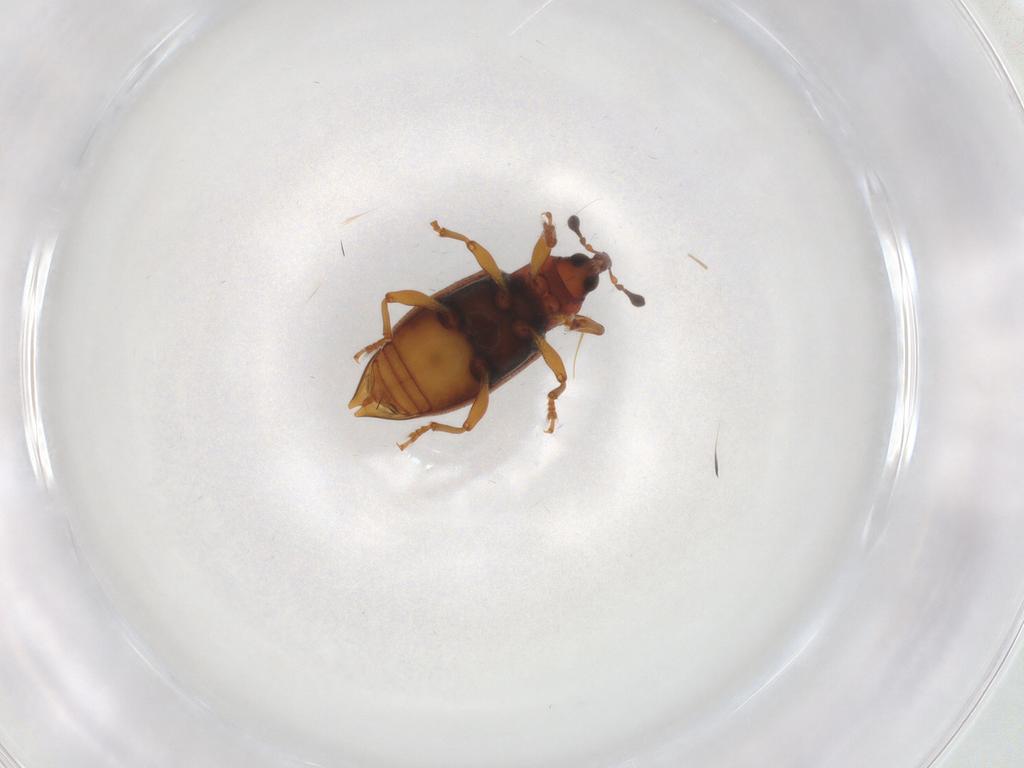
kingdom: Animalia
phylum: Arthropoda
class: Insecta
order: Coleoptera
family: Curculionidae
